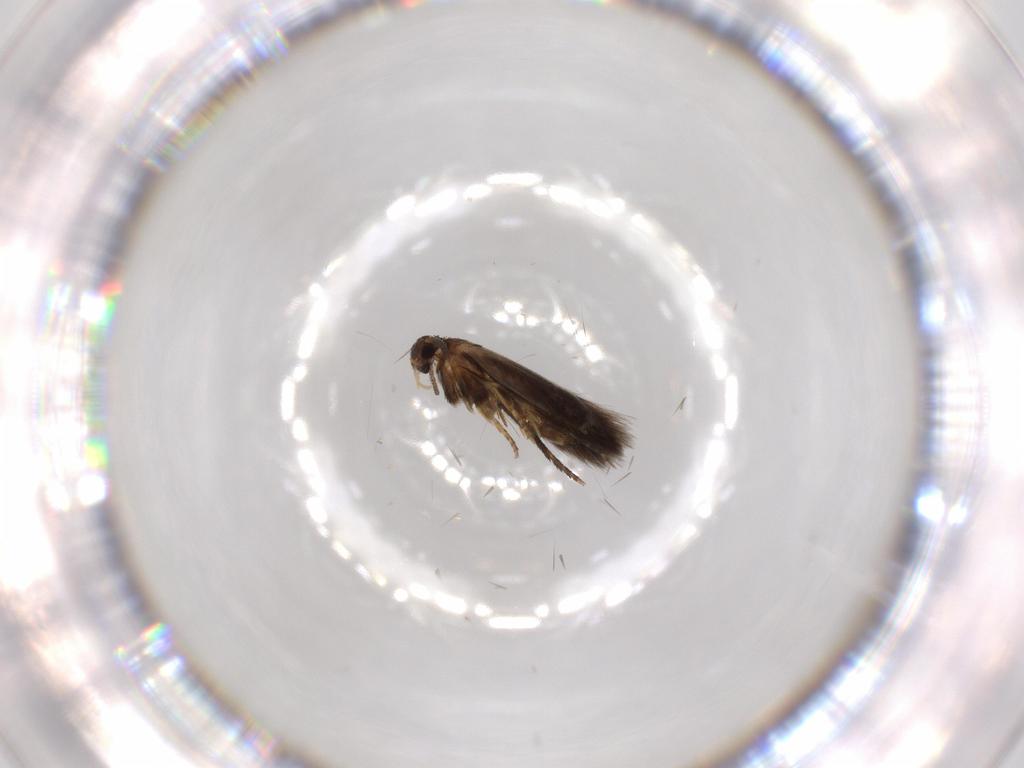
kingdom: Animalia
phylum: Arthropoda
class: Insecta
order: Lepidoptera
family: Heliozelidae
